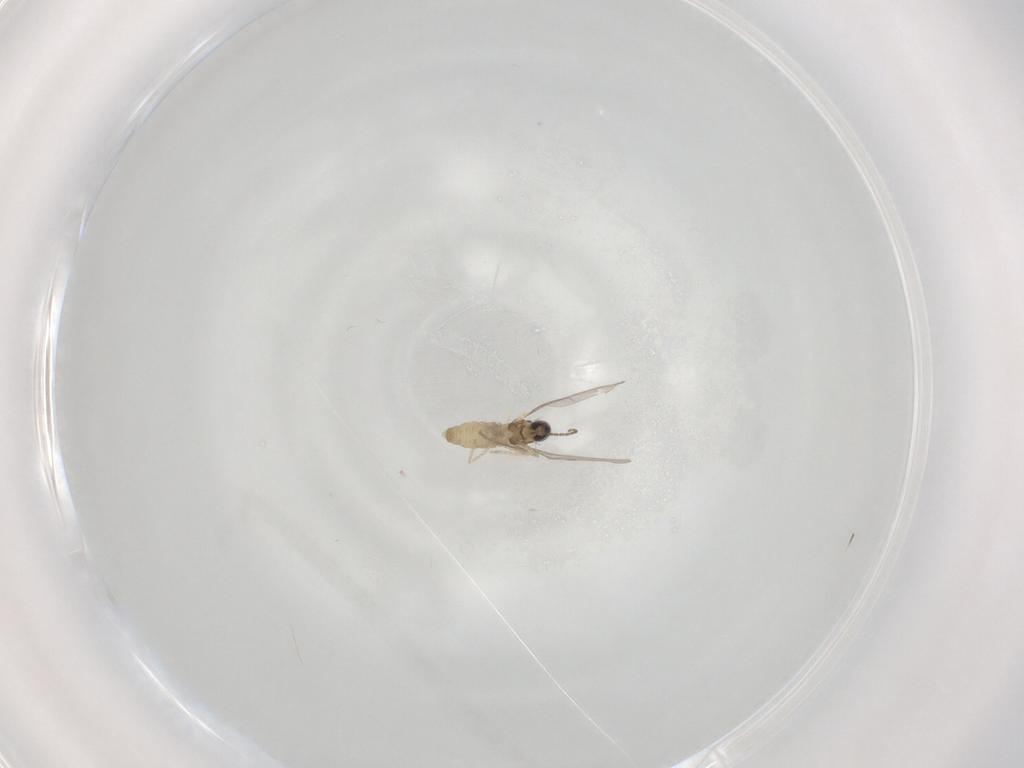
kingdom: Animalia
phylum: Arthropoda
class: Insecta
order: Diptera
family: Cecidomyiidae
